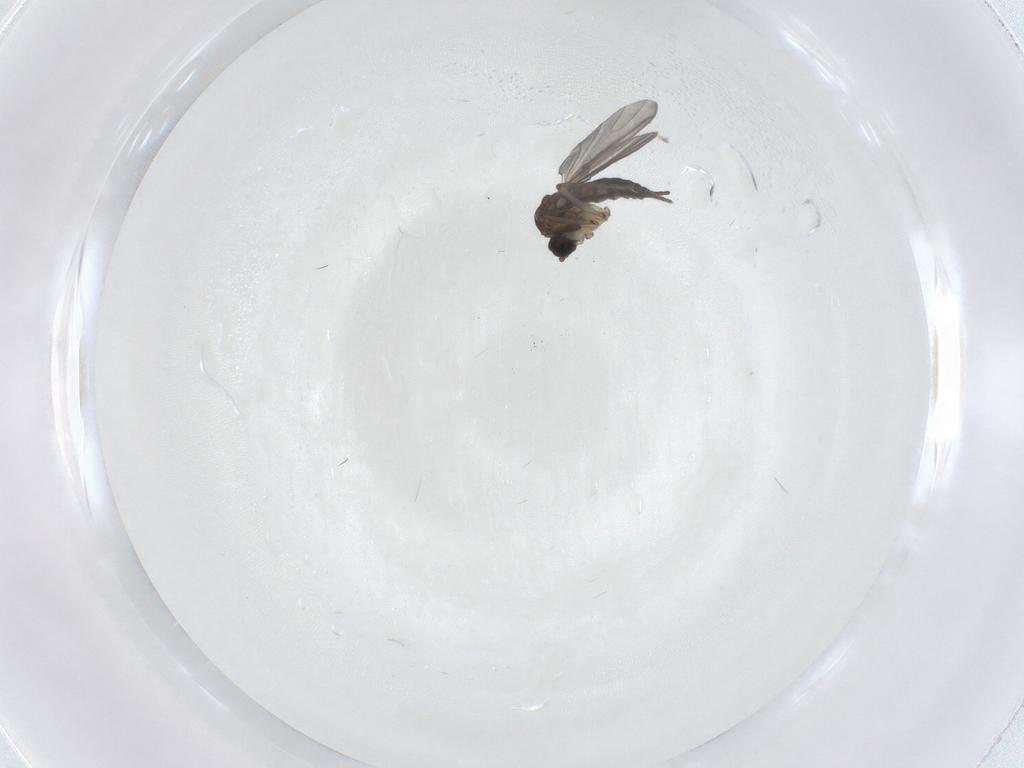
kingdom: Animalia
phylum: Arthropoda
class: Insecta
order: Diptera
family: Sciaridae
